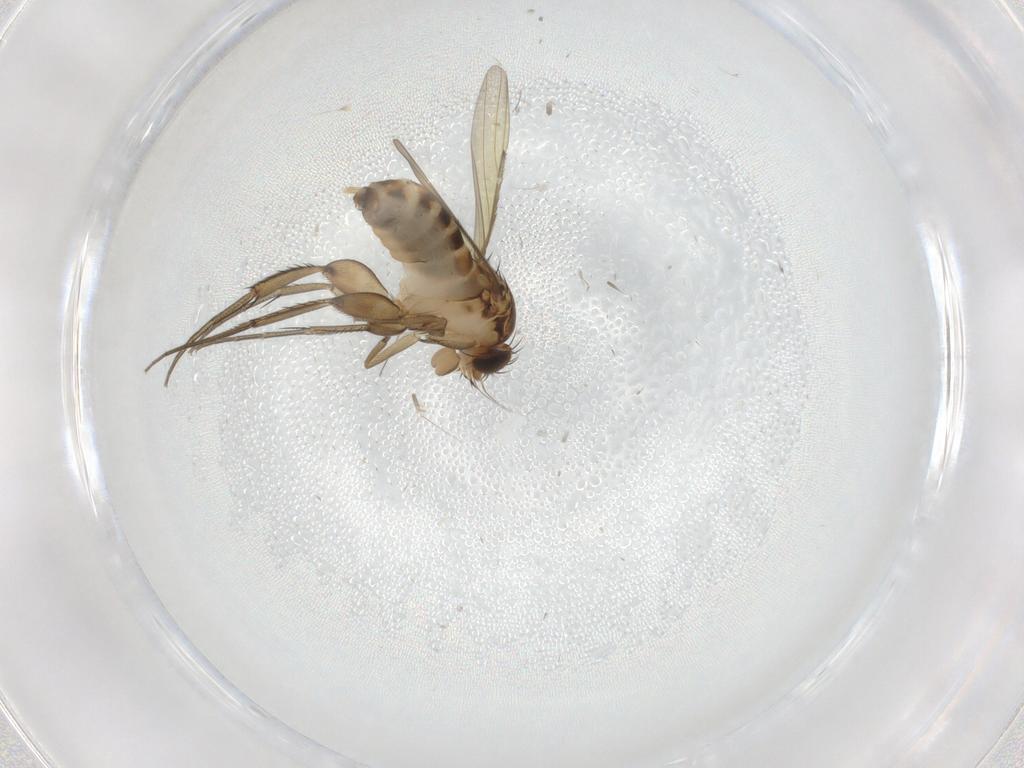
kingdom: Animalia
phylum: Arthropoda
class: Insecta
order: Diptera
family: Phoridae
